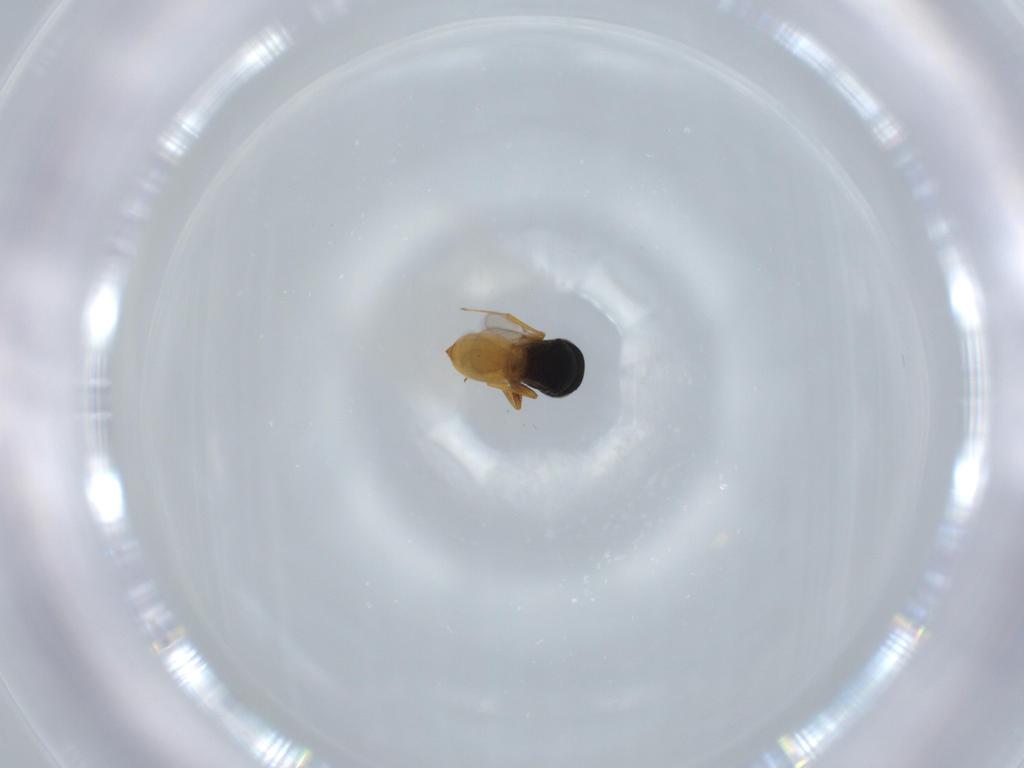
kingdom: Animalia
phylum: Arthropoda
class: Insecta
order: Hymenoptera
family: Scelionidae
